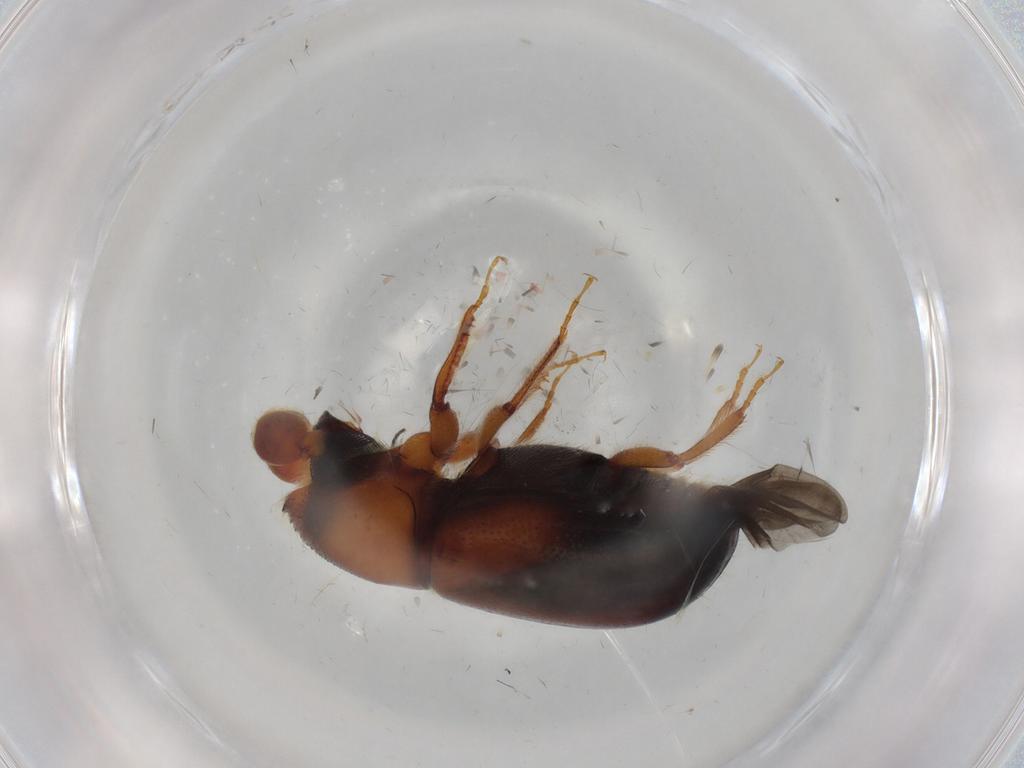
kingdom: Animalia
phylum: Arthropoda
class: Insecta
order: Coleoptera
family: Curculionidae
